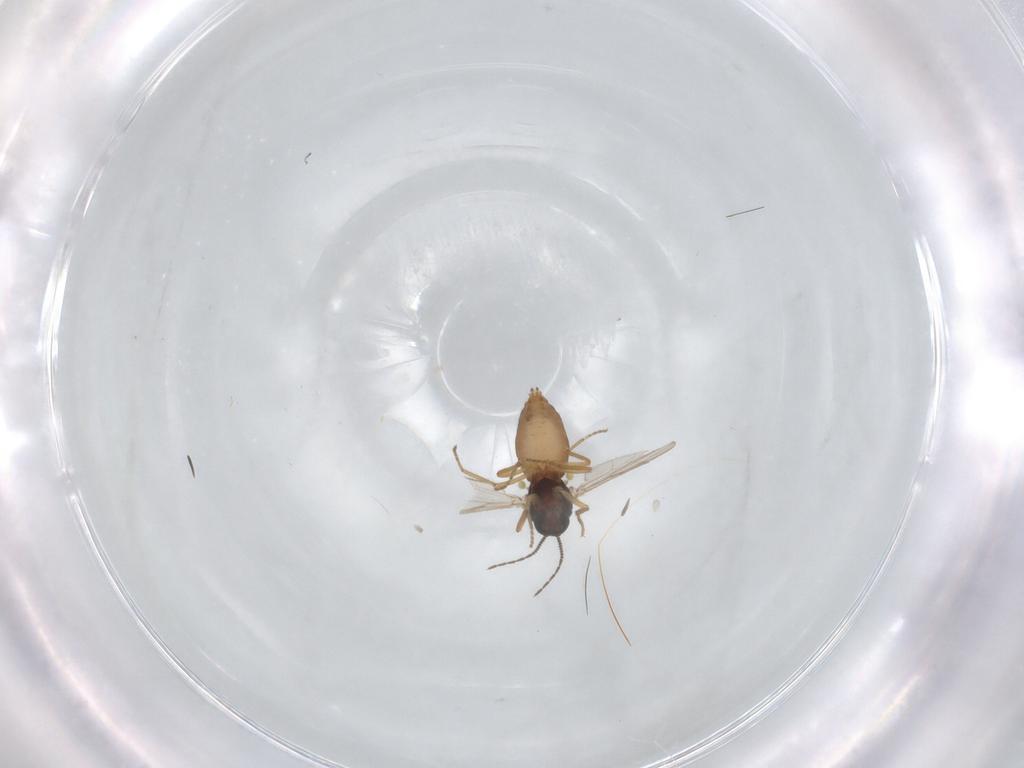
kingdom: Animalia
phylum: Arthropoda
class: Insecta
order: Diptera
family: Ceratopogonidae
